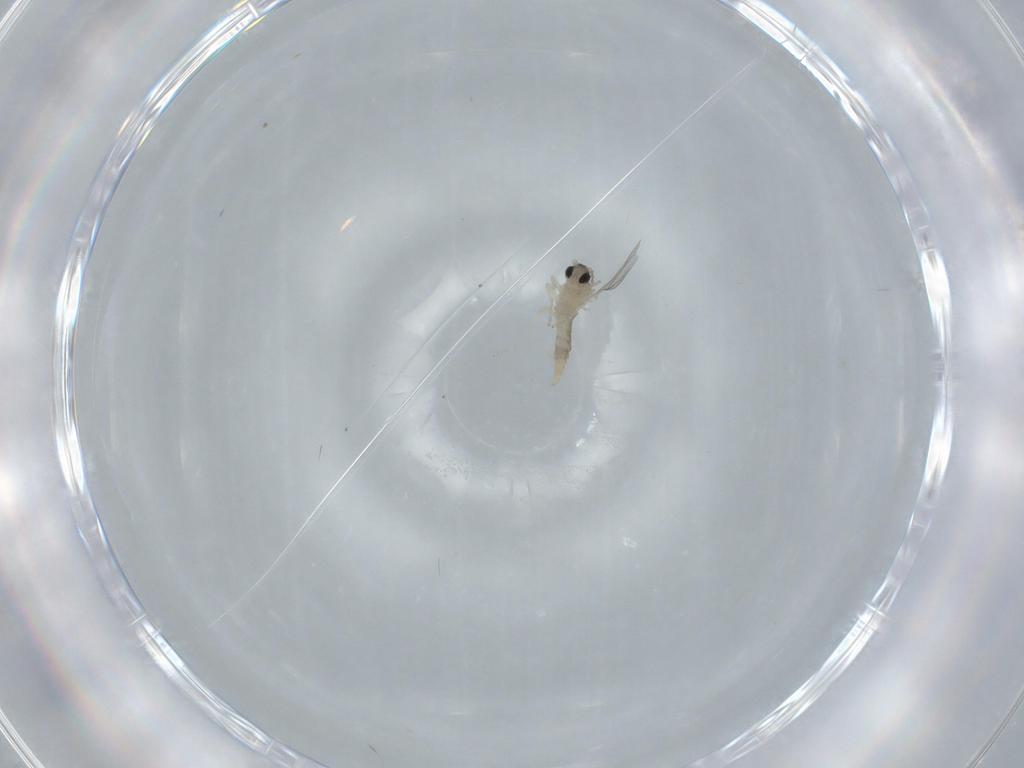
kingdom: Animalia
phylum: Arthropoda
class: Insecta
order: Diptera
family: Cecidomyiidae
